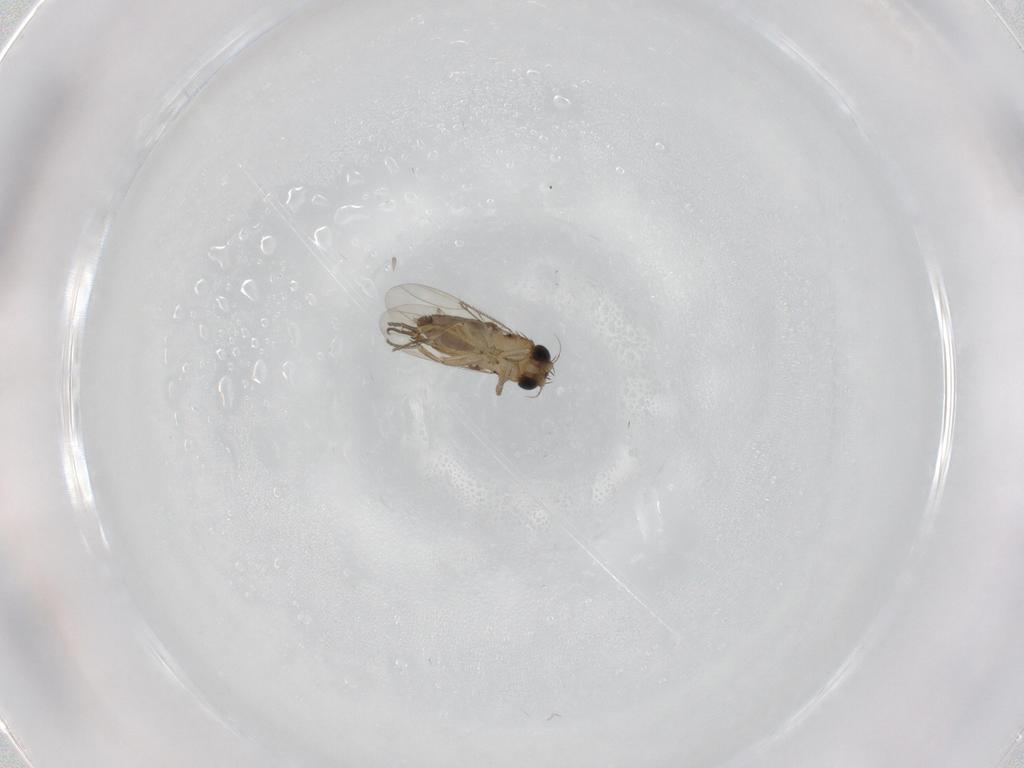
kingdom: Animalia
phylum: Arthropoda
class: Insecta
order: Diptera
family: Phoridae
